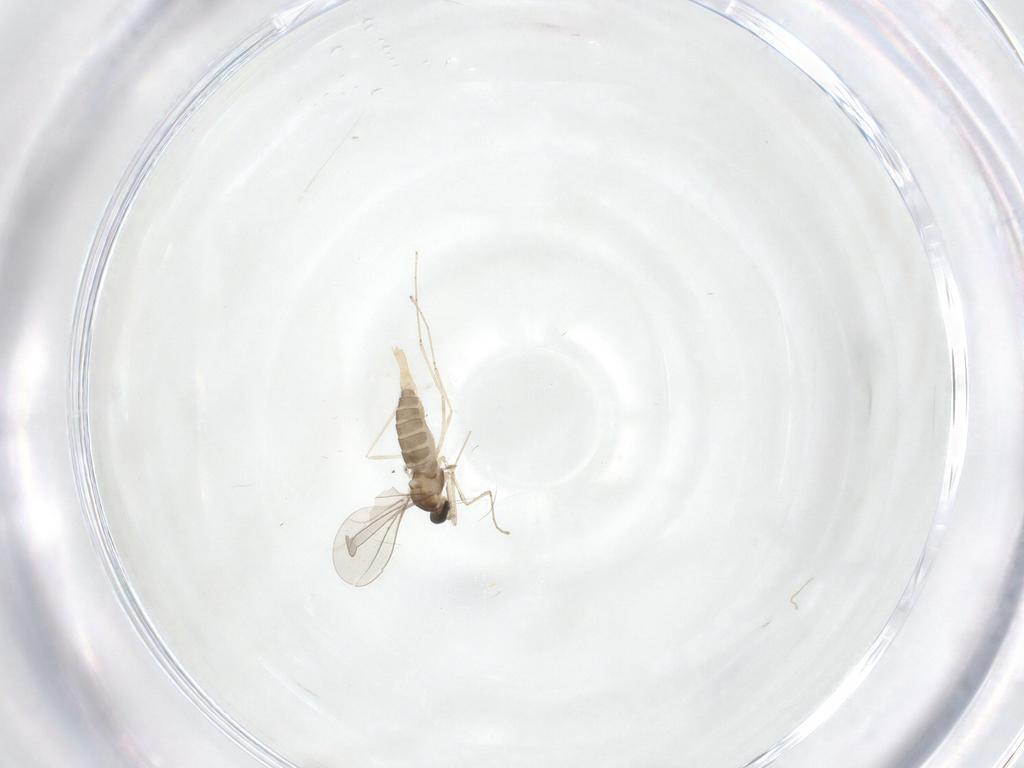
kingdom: Animalia
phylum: Arthropoda
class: Insecta
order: Diptera
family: Cecidomyiidae
